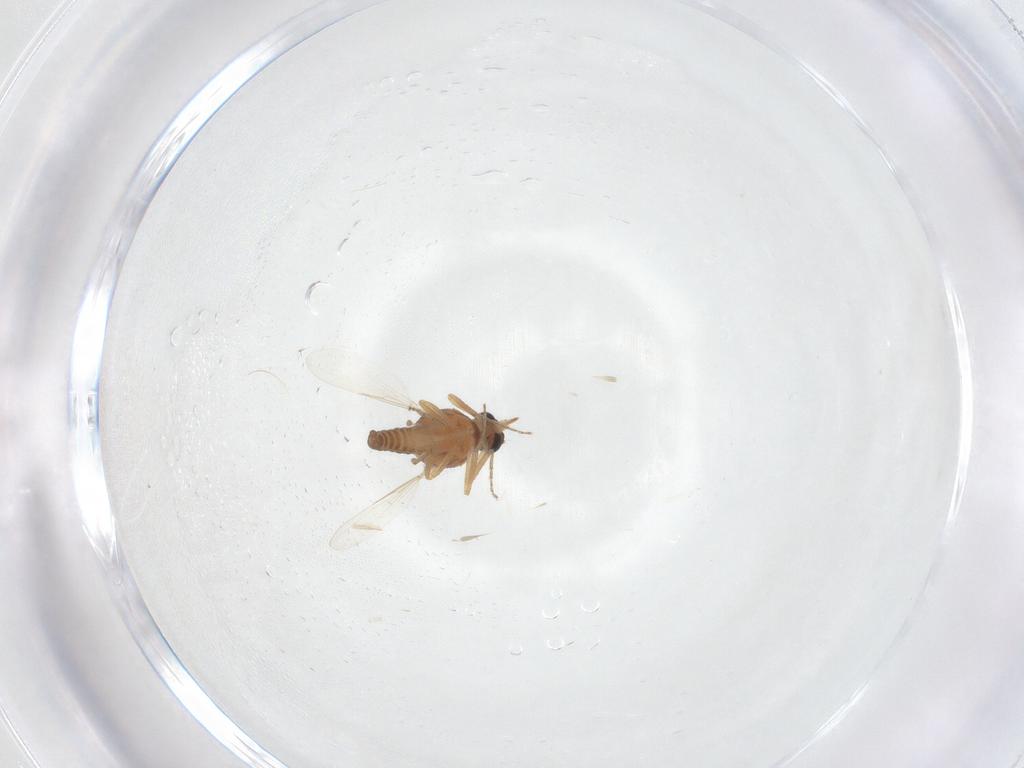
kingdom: Animalia
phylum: Arthropoda
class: Insecta
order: Diptera
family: Ceratopogonidae
